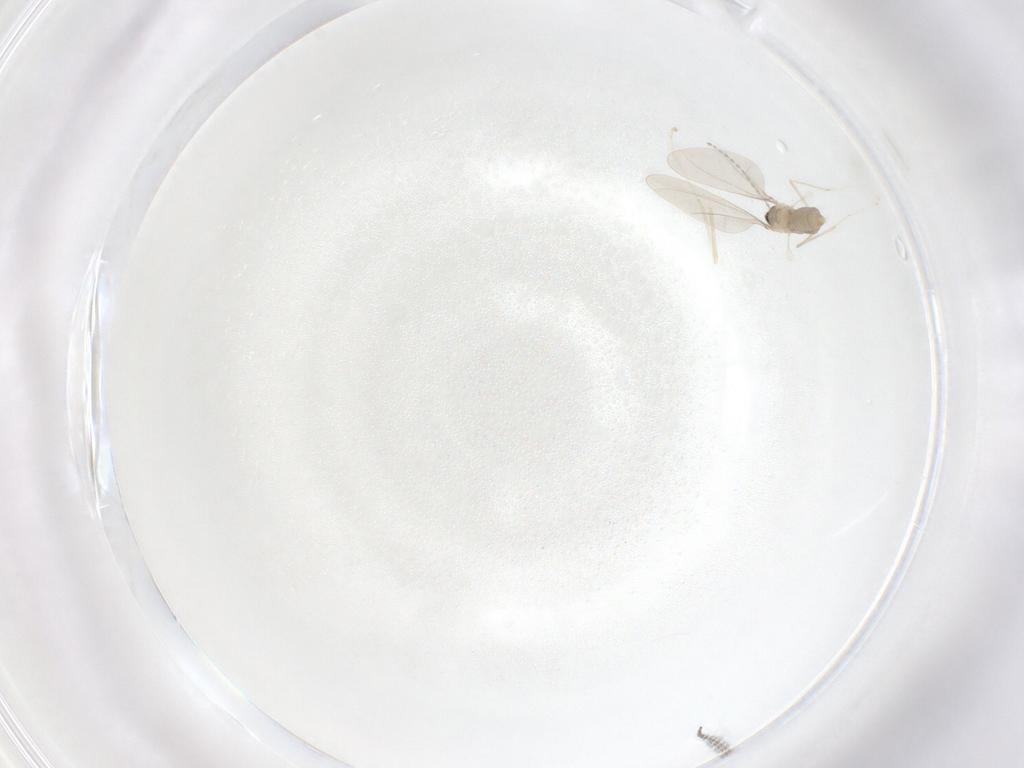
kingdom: Animalia
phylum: Arthropoda
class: Insecta
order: Diptera
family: Cecidomyiidae
